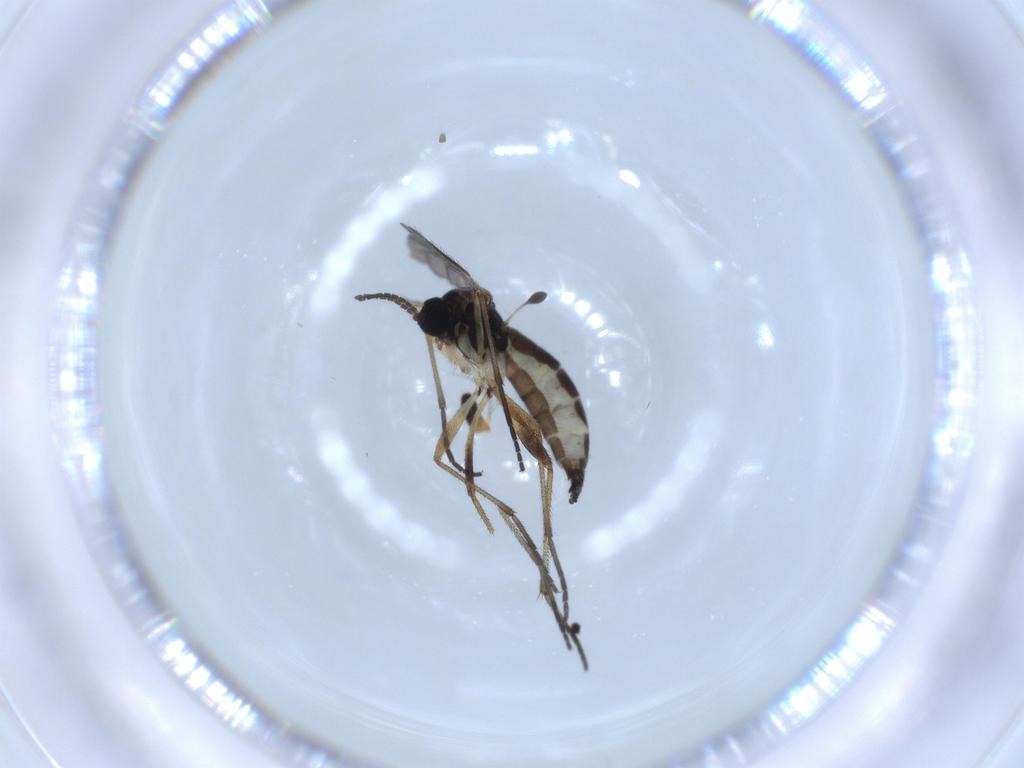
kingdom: Animalia
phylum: Arthropoda
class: Insecta
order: Diptera
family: Sciaridae
